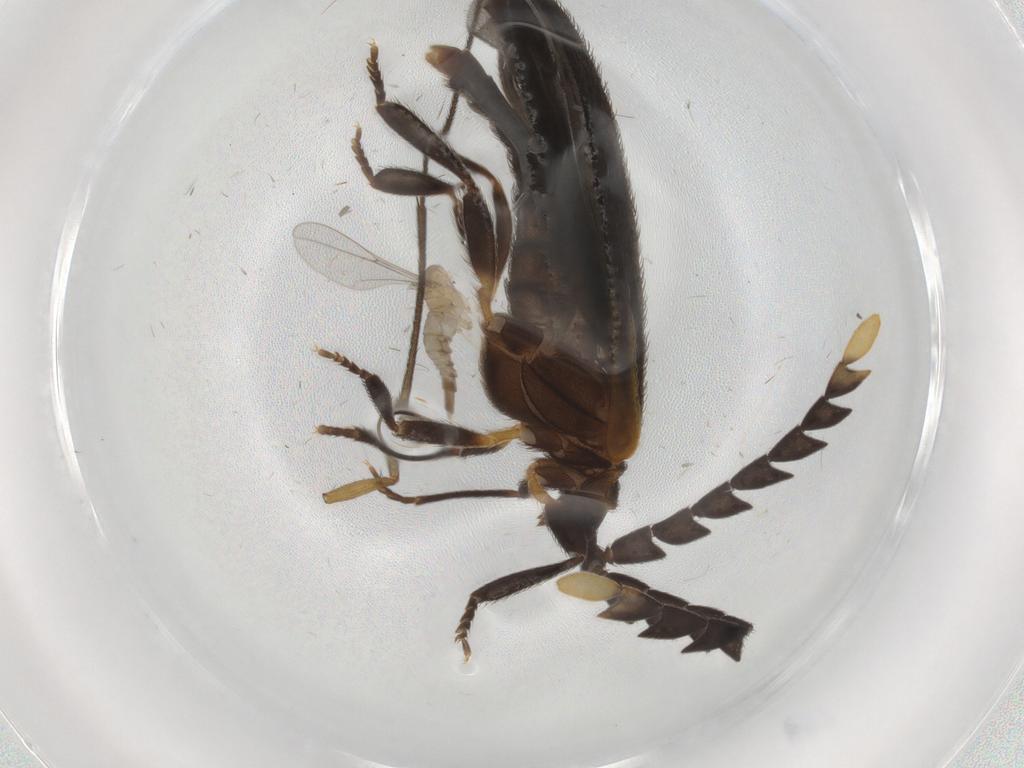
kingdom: Animalia
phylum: Arthropoda
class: Insecta
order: Coleoptera
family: Lycidae
